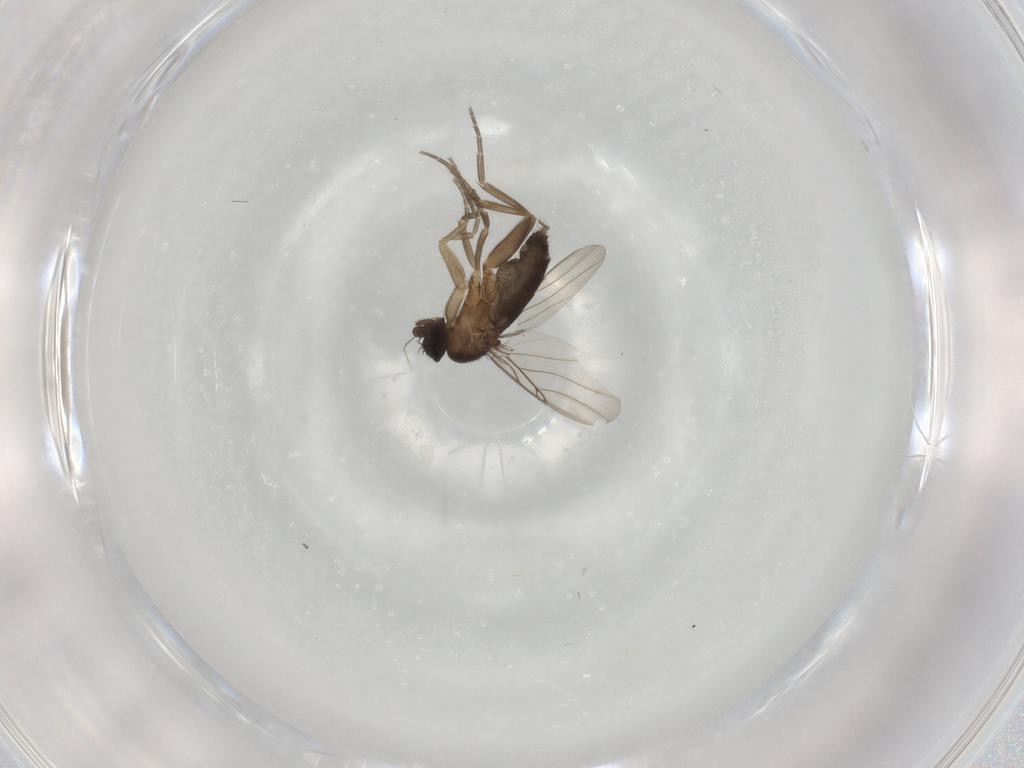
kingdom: Animalia
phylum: Arthropoda
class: Insecta
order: Diptera
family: Phoridae
